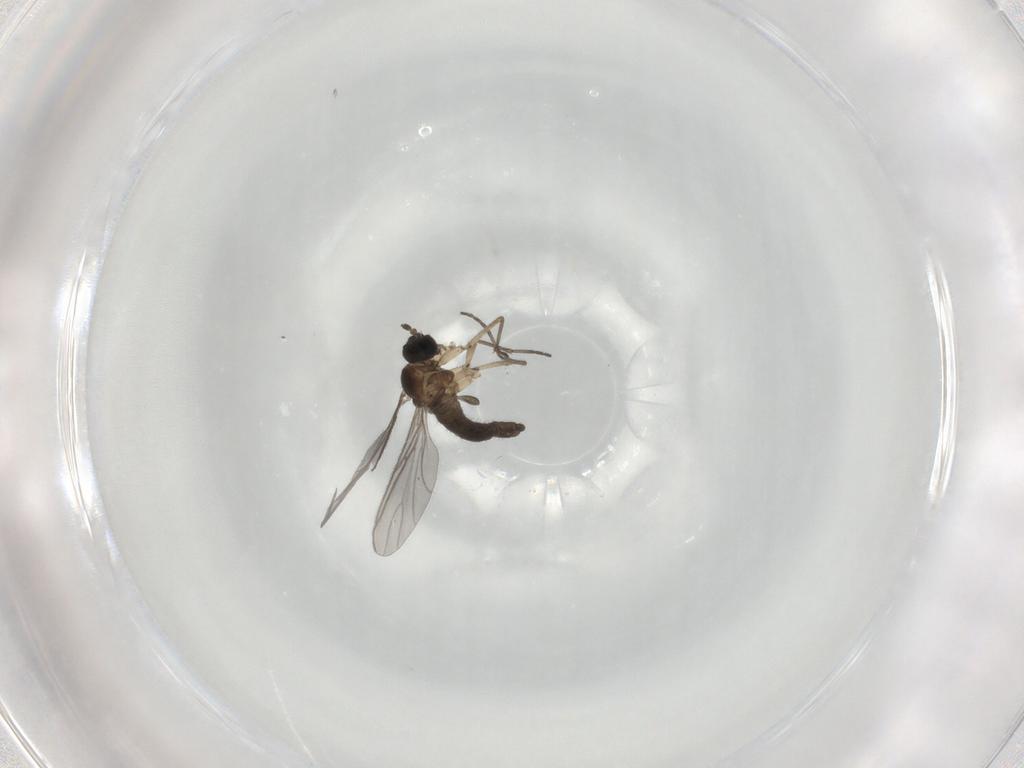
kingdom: Animalia
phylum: Arthropoda
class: Insecta
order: Diptera
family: Sciaridae
